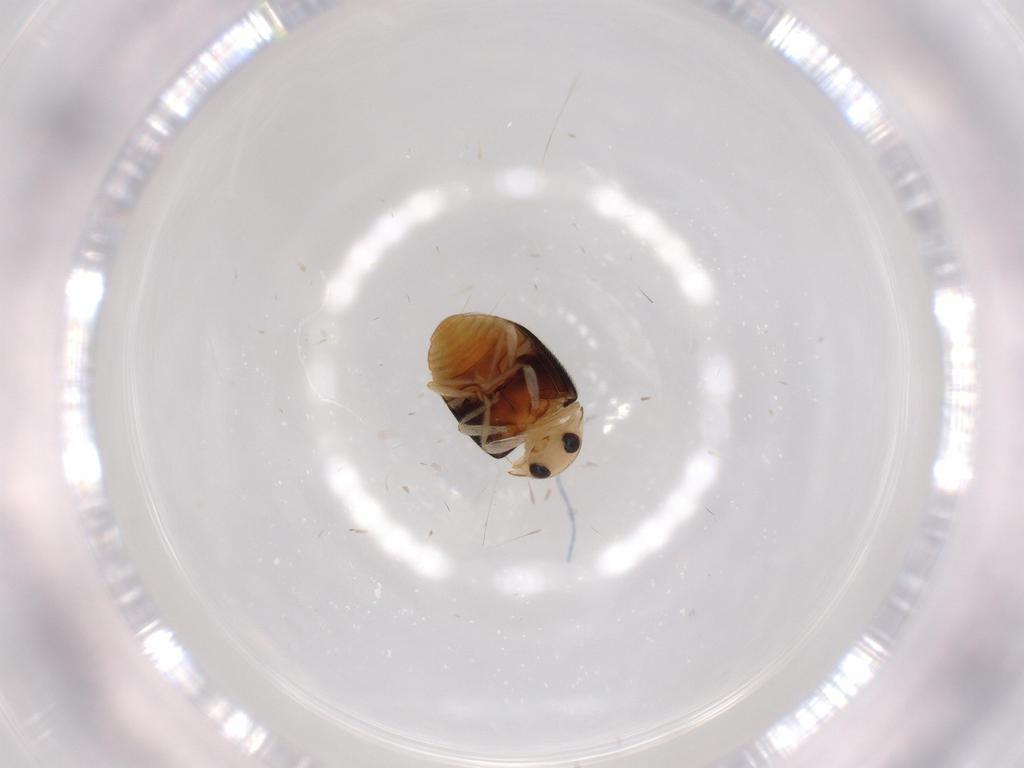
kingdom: Animalia
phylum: Arthropoda
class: Insecta
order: Coleoptera
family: Coccinellidae
